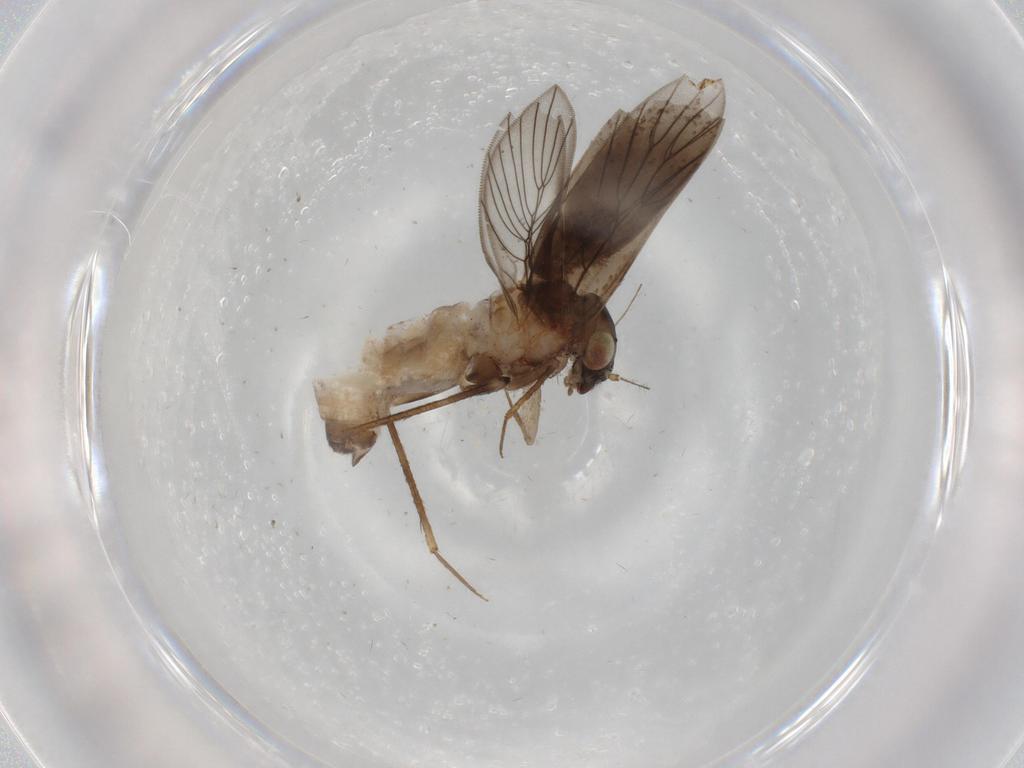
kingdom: Animalia
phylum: Arthropoda
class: Insecta
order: Psocodea
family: Lepidopsocidae
